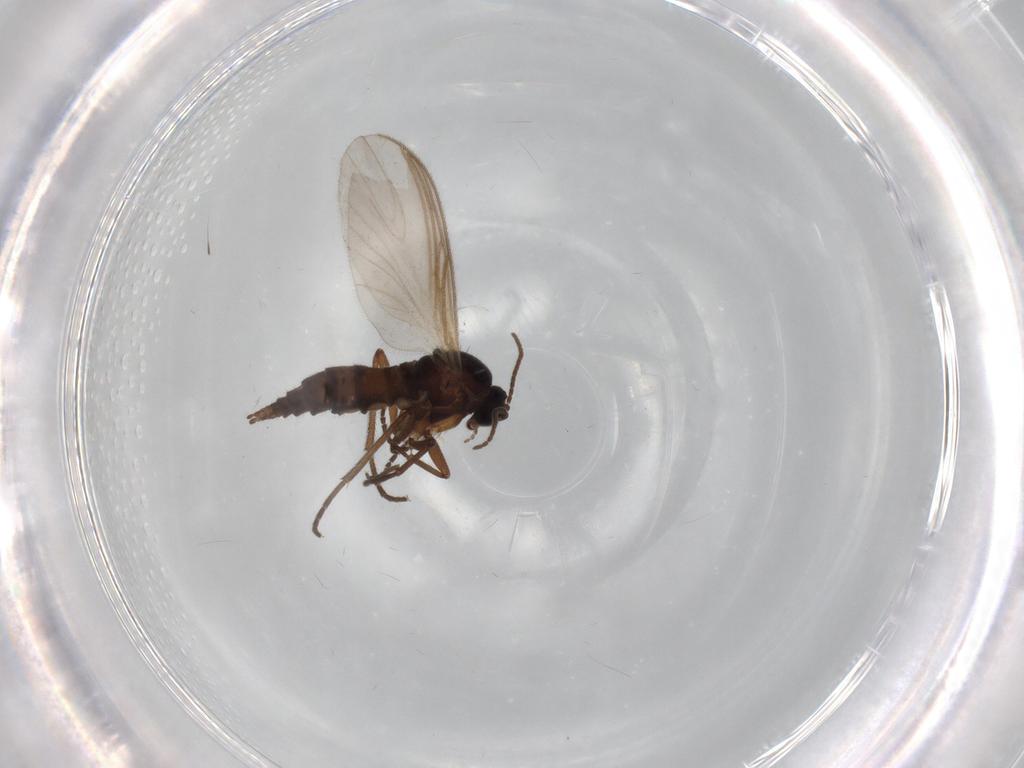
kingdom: Animalia
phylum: Arthropoda
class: Insecta
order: Diptera
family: Sciaridae
